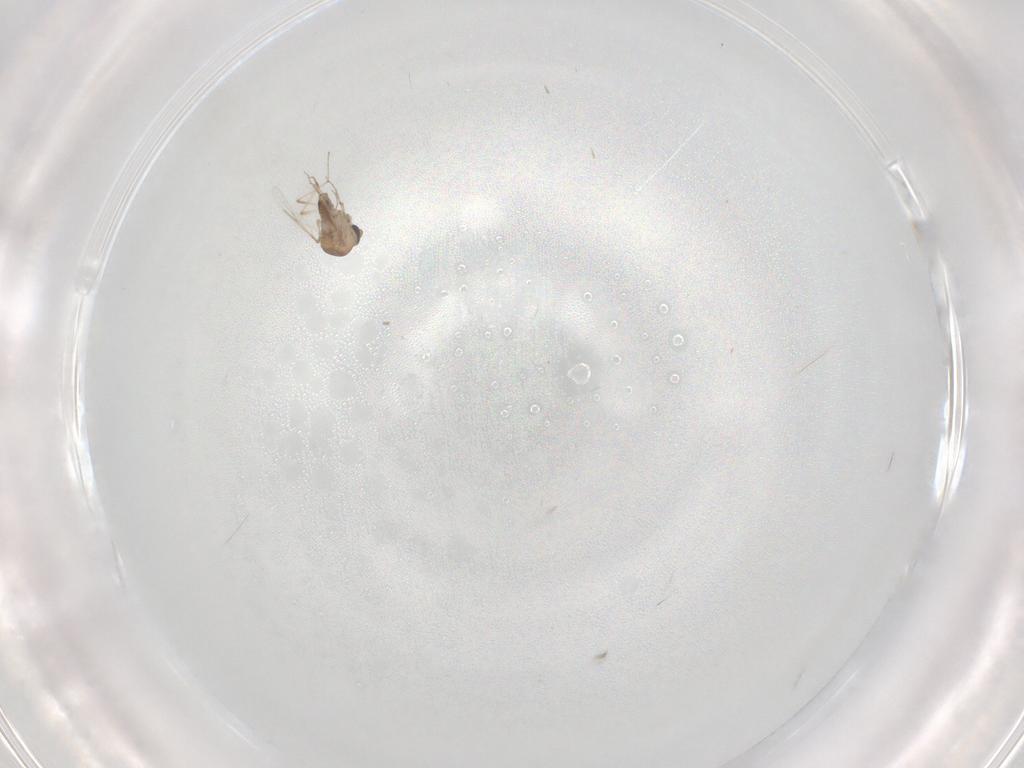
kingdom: Animalia
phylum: Arthropoda
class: Insecta
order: Diptera
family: Ceratopogonidae
